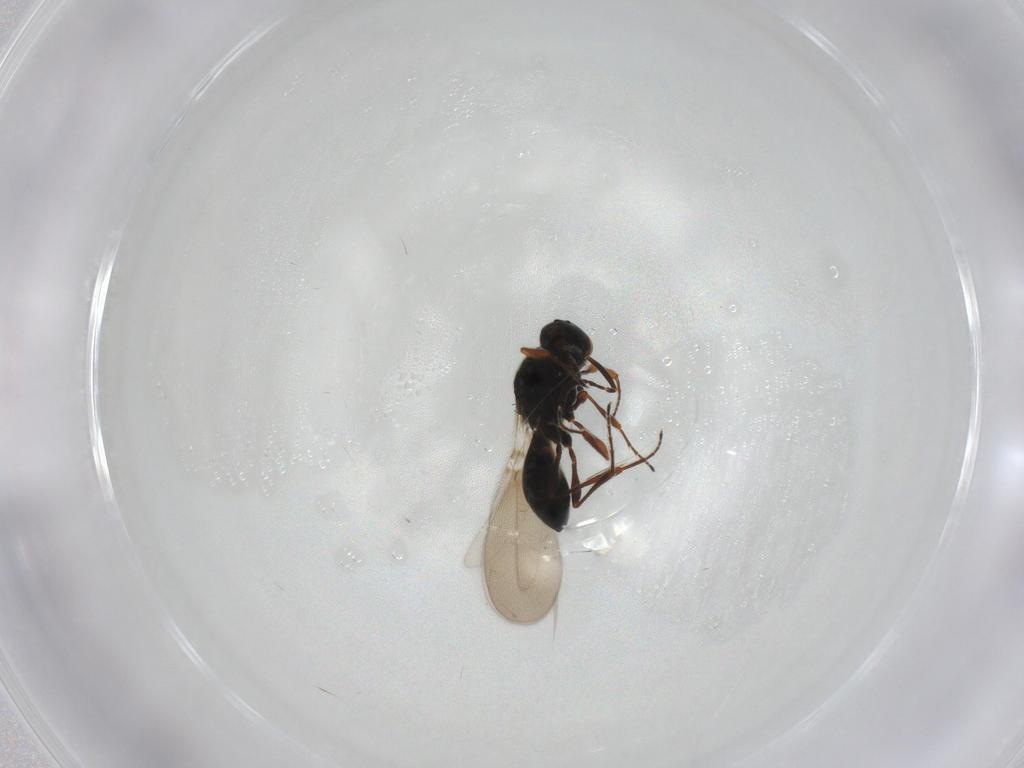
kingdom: Animalia
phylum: Arthropoda
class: Insecta
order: Hymenoptera
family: Platygastridae
